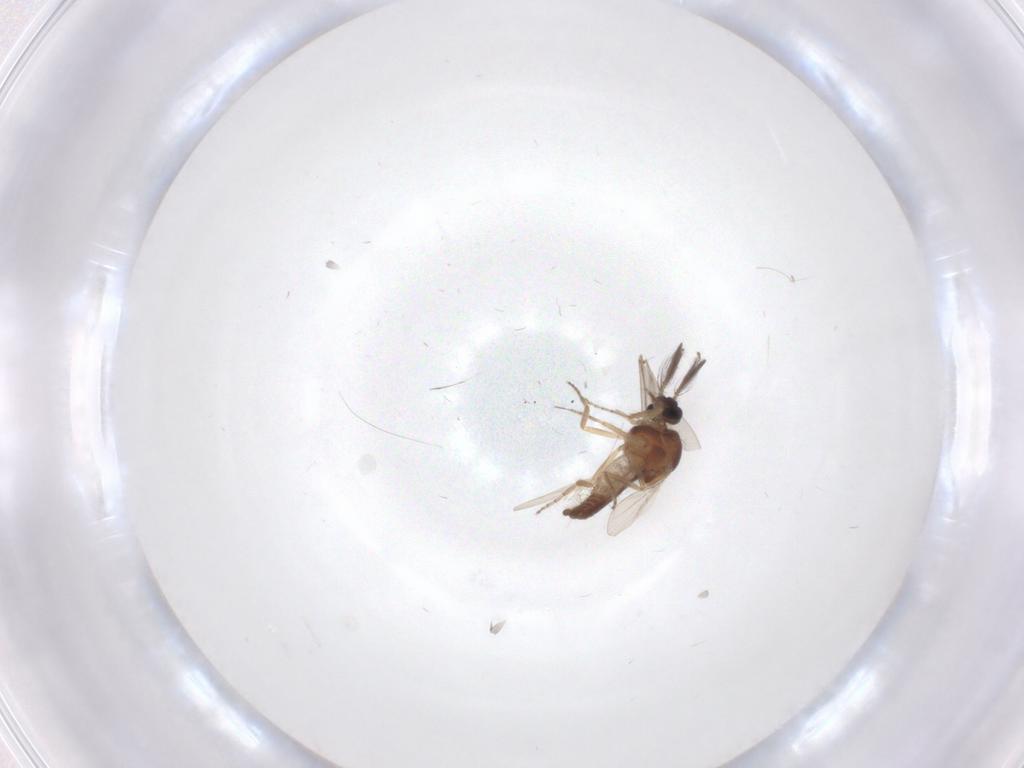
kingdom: Animalia
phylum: Arthropoda
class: Insecta
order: Diptera
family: Ceratopogonidae
